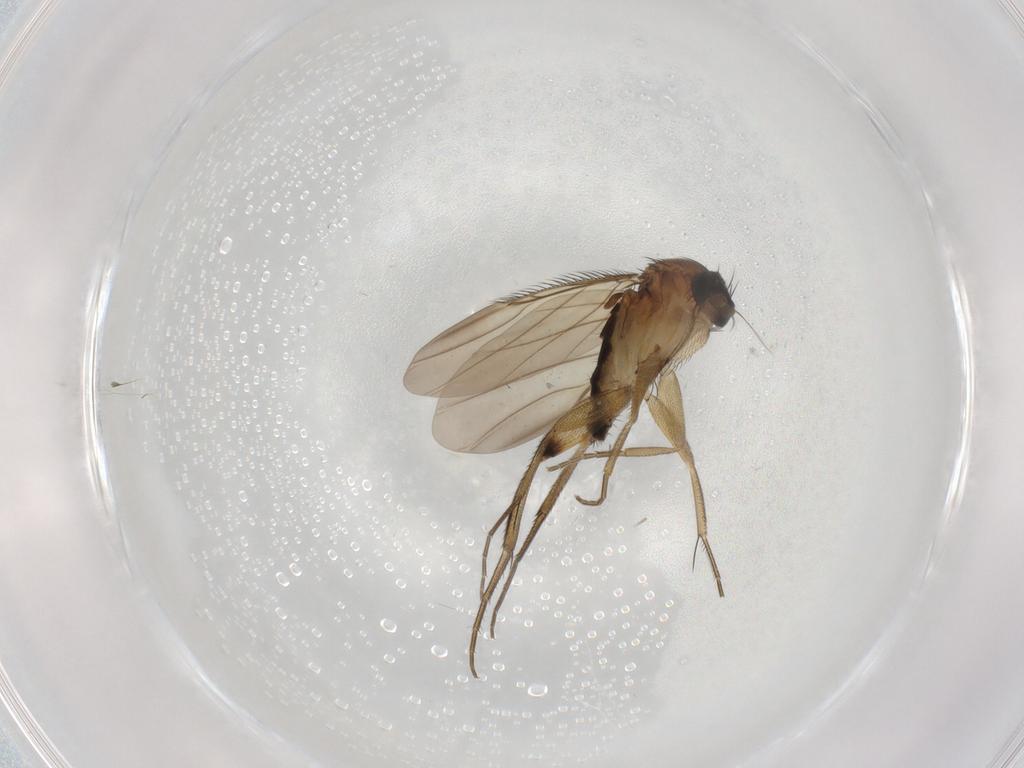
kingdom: Animalia
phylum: Arthropoda
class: Insecta
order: Diptera
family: Phoridae
